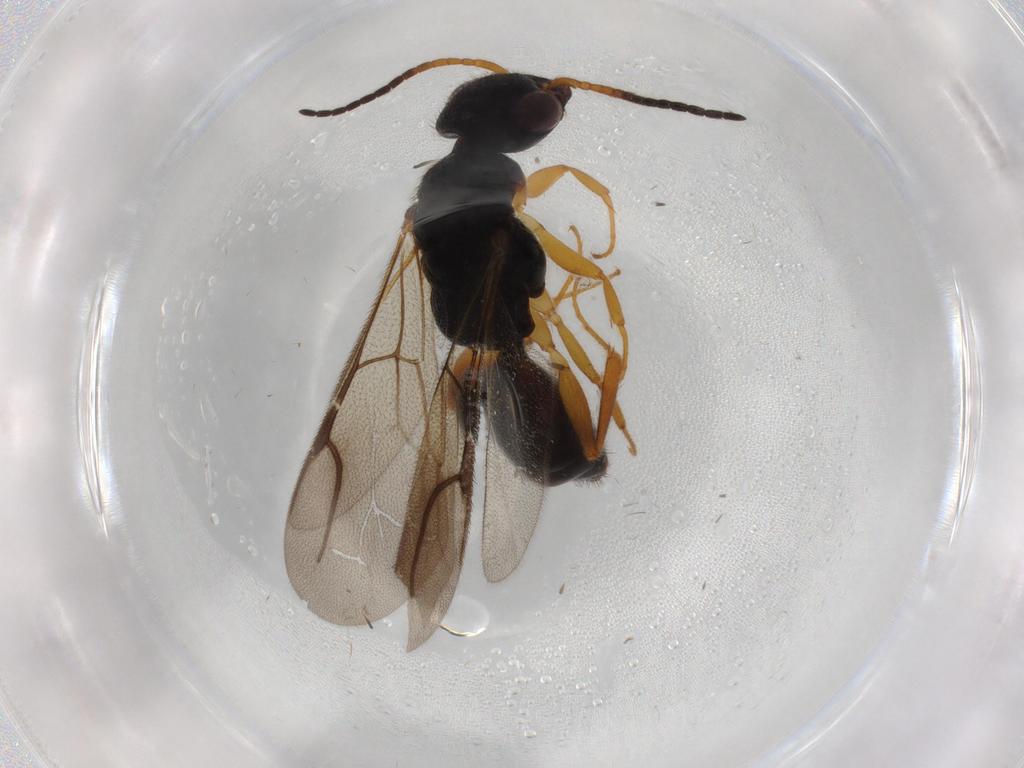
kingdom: Animalia
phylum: Arthropoda
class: Insecta
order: Hymenoptera
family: Bethylidae
